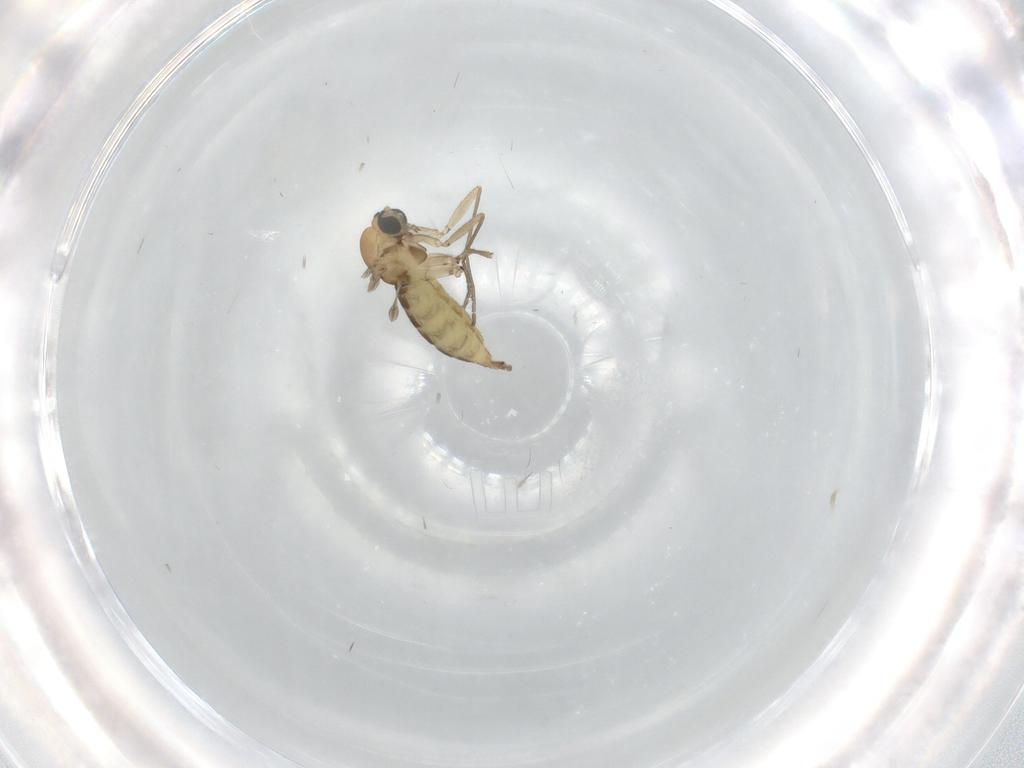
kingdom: Animalia
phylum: Arthropoda
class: Insecta
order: Diptera
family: Sciaridae
